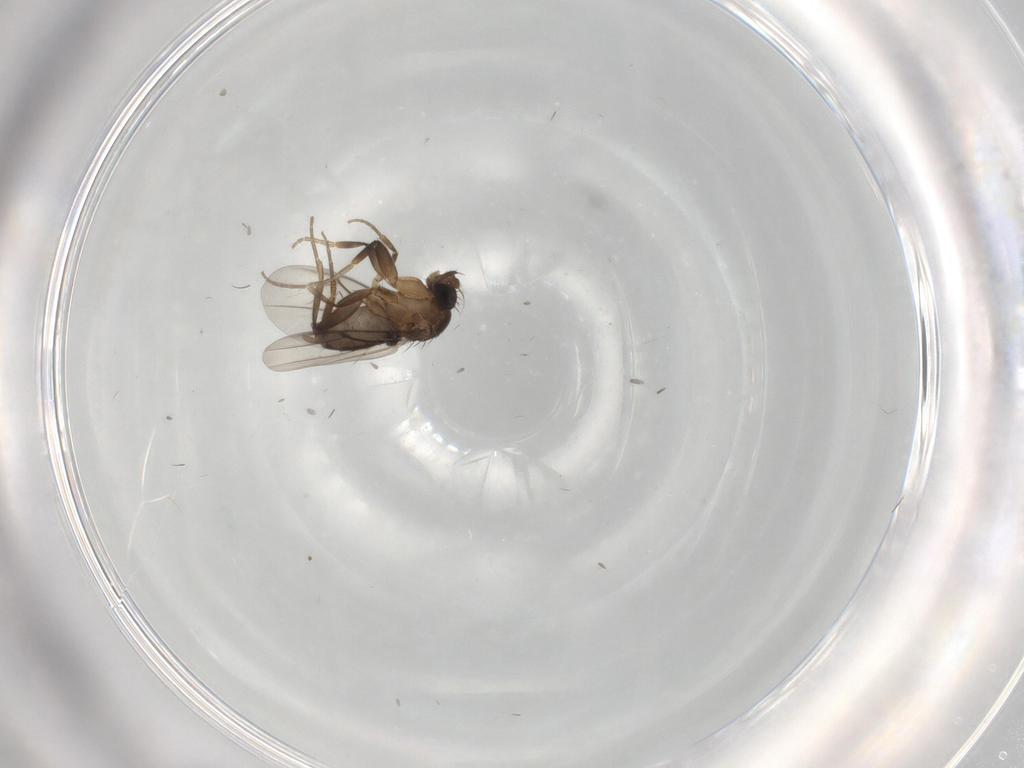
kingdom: Animalia
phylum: Arthropoda
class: Insecta
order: Diptera
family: Phoridae
